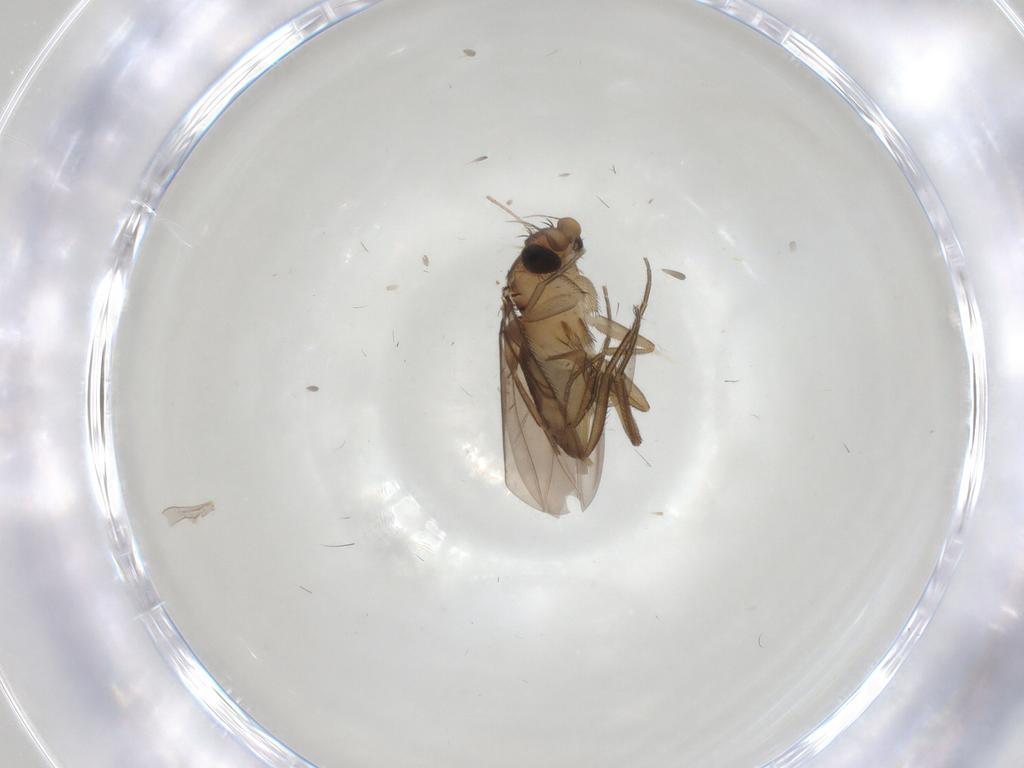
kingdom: Animalia
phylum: Arthropoda
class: Insecta
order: Diptera
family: Phoridae
